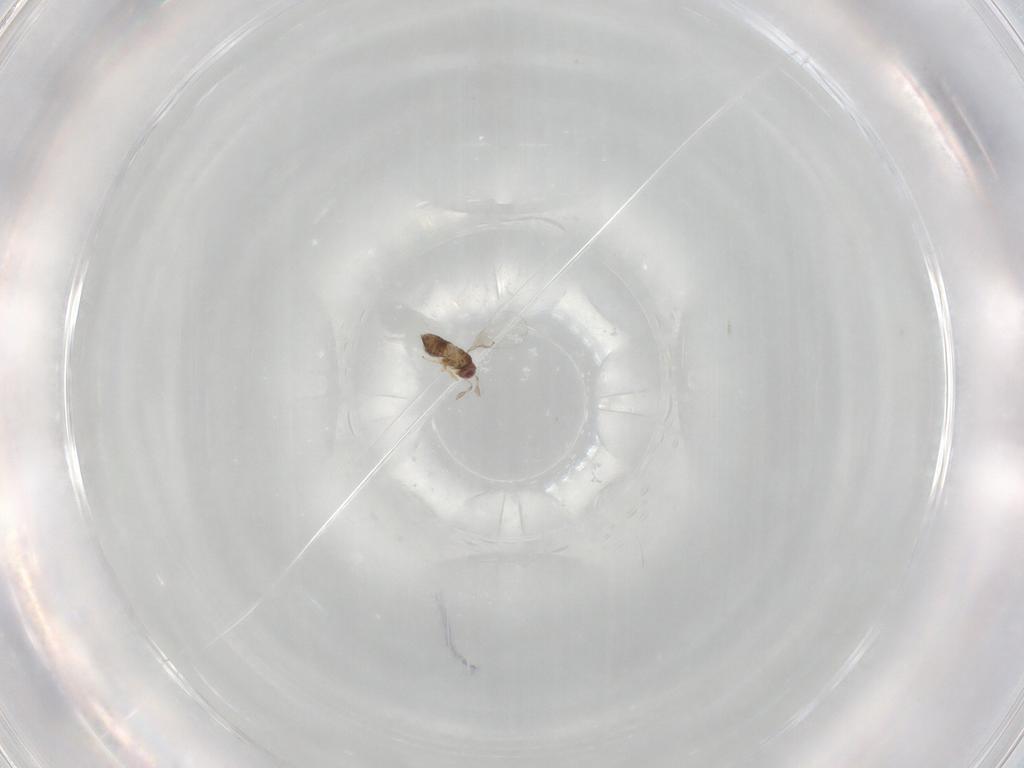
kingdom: Animalia
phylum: Arthropoda
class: Insecta
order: Hymenoptera
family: Trichogrammatidae
